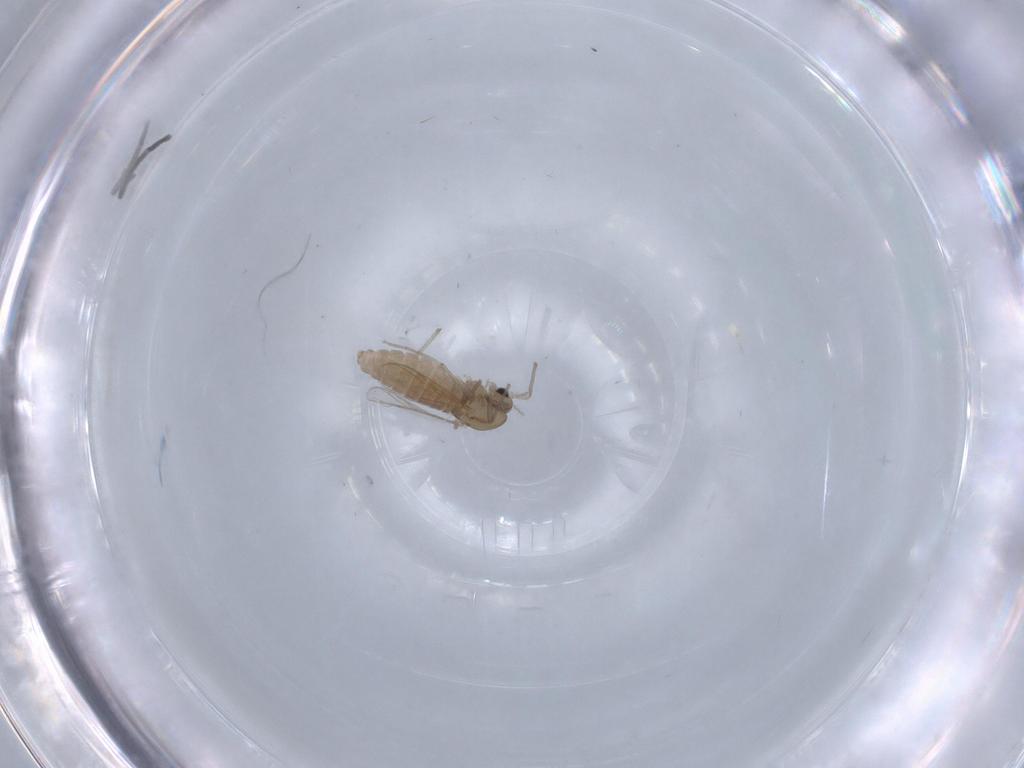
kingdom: Animalia
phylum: Arthropoda
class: Insecta
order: Diptera
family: Chironomidae
